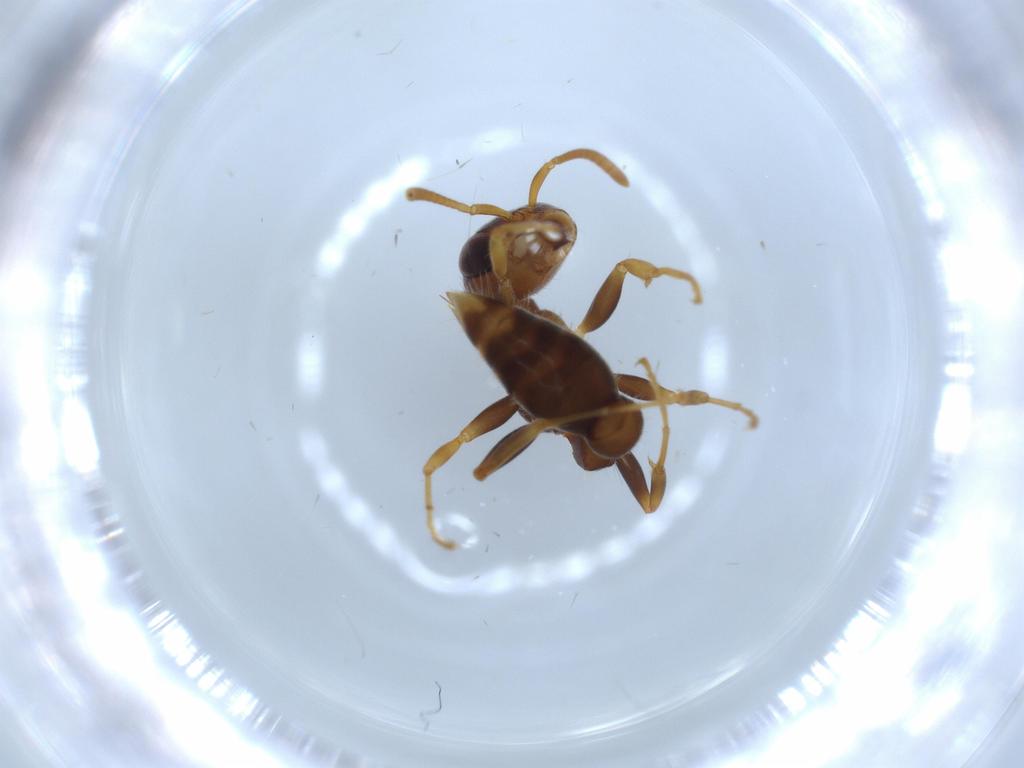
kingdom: Animalia
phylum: Arthropoda
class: Insecta
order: Hymenoptera
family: Formicidae
